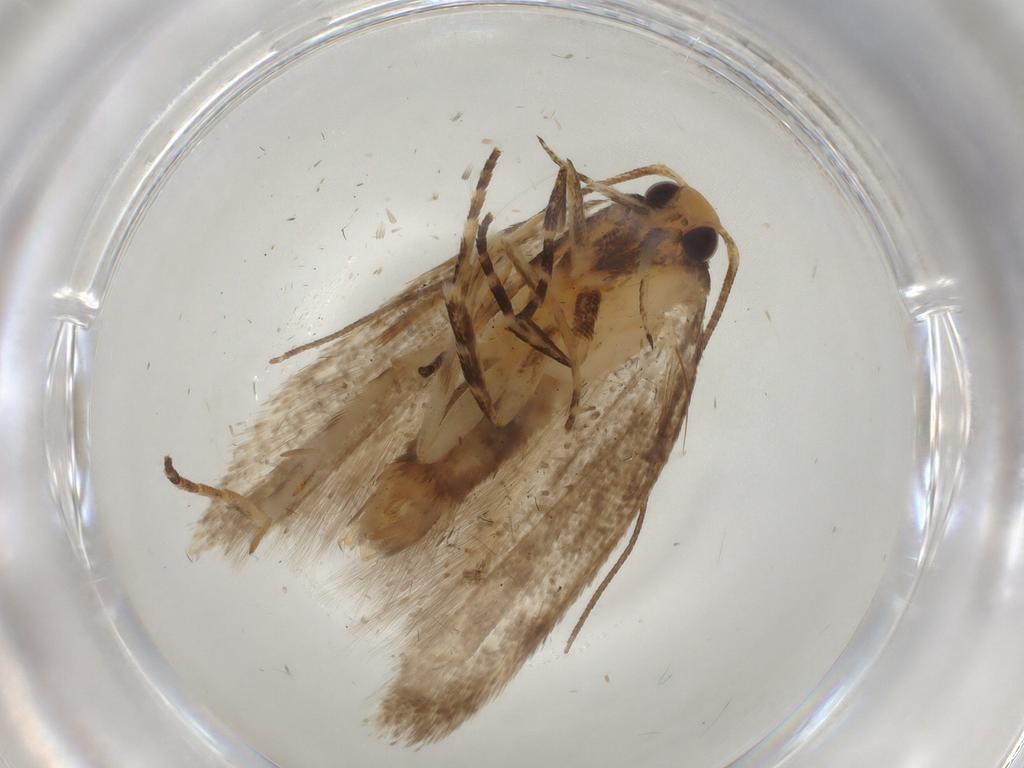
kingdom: Animalia
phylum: Arthropoda
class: Insecta
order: Lepidoptera
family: Gelechiidae
